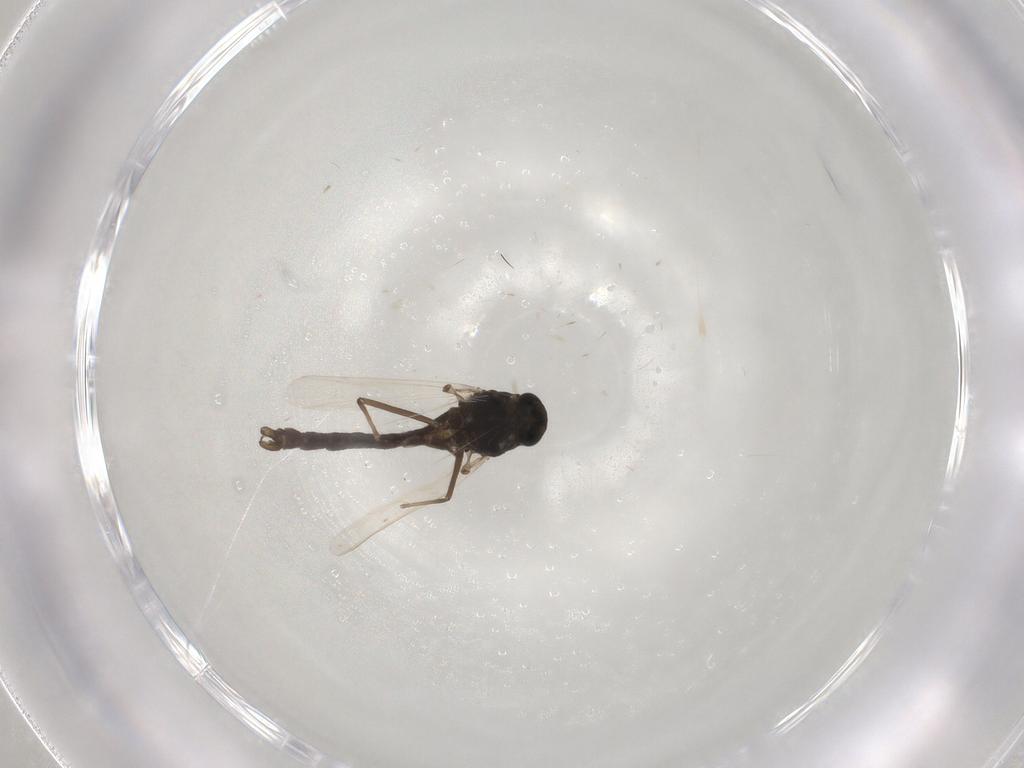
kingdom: Animalia
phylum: Arthropoda
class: Insecta
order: Diptera
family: Chironomidae
